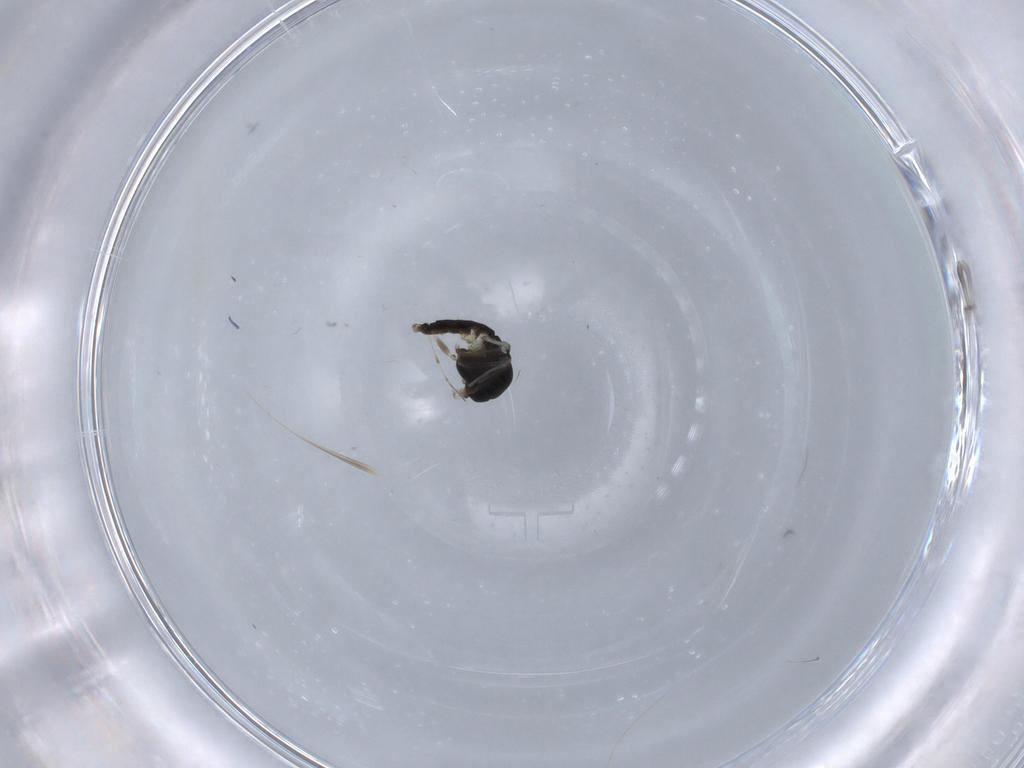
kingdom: Animalia
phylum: Arthropoda
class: Insecta
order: Diptera
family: Chironomidae
